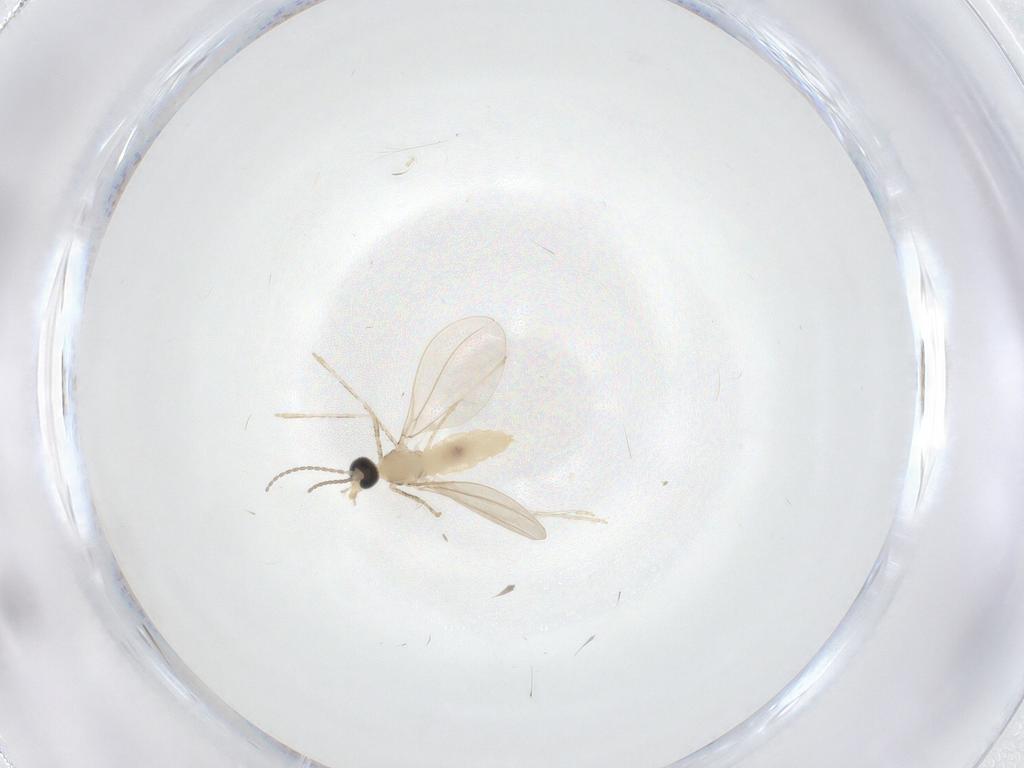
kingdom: Animalia
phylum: Arthropoda
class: Insecta
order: Diptera
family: Cecidomyiidae
